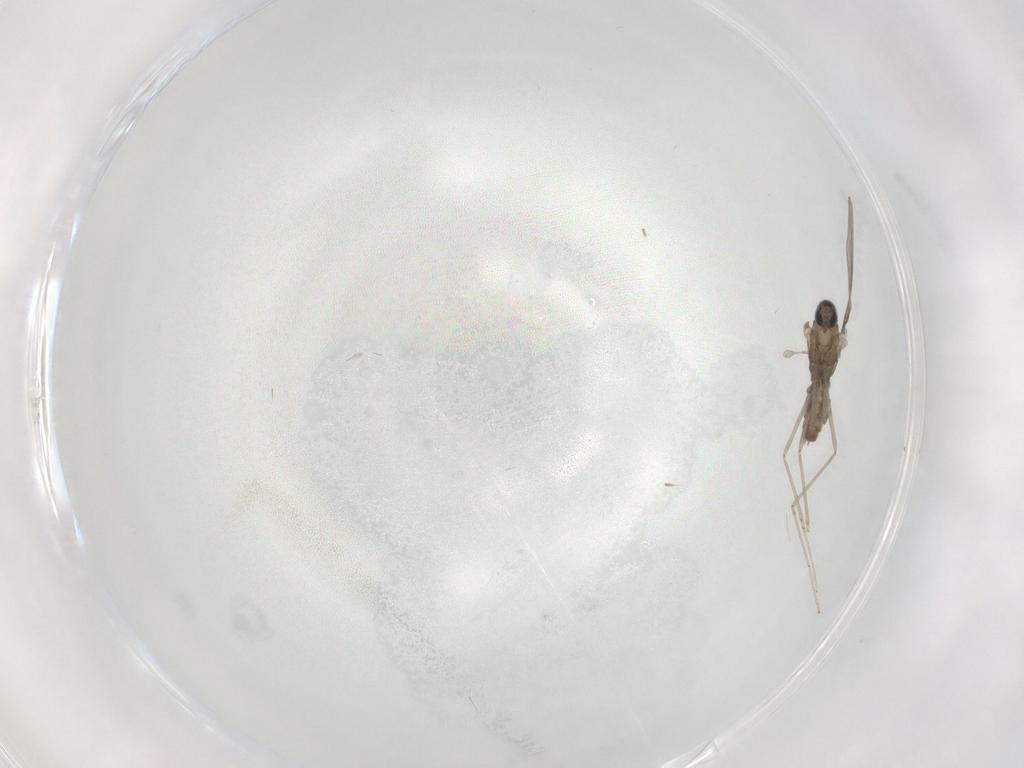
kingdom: Animalia
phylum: Arthropoda
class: Insecta
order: Diptera
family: Cecidomyiidae
